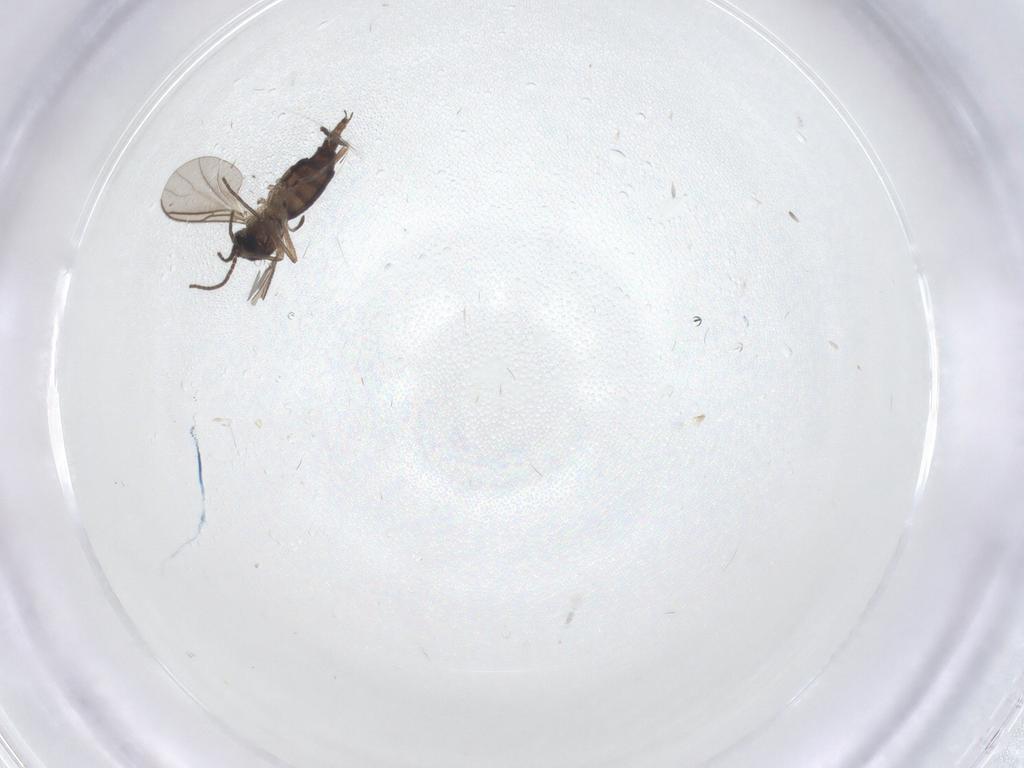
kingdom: Animalia
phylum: Arthropoda
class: Insecta
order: Diptera
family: Sciaridae
